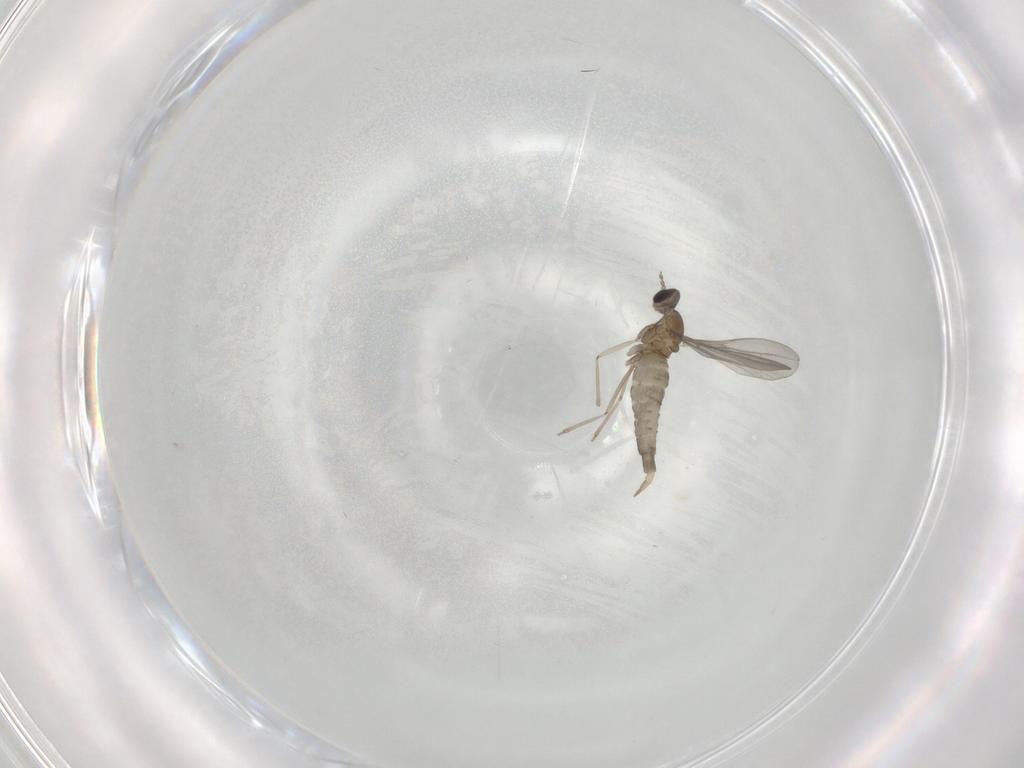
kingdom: Animalia
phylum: Arthropoda
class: Insecta
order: Diptera
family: Cecidomyiidae
